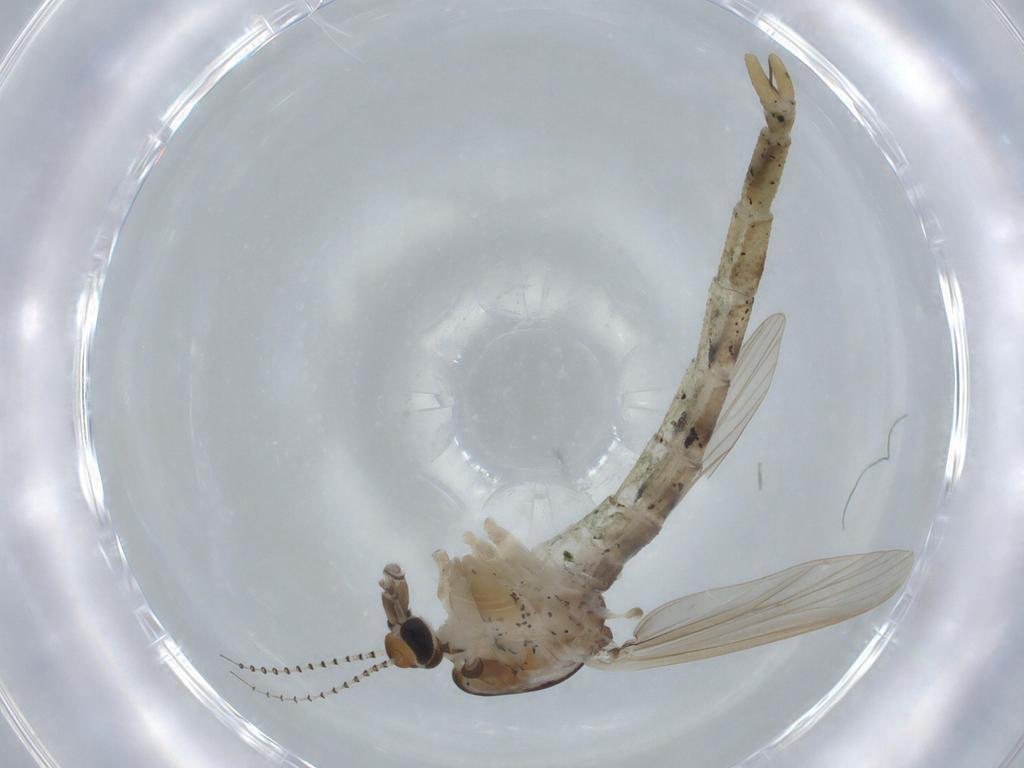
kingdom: Animalia
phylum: Arthropoda
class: Insecta
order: Diptera
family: Chironomidae
